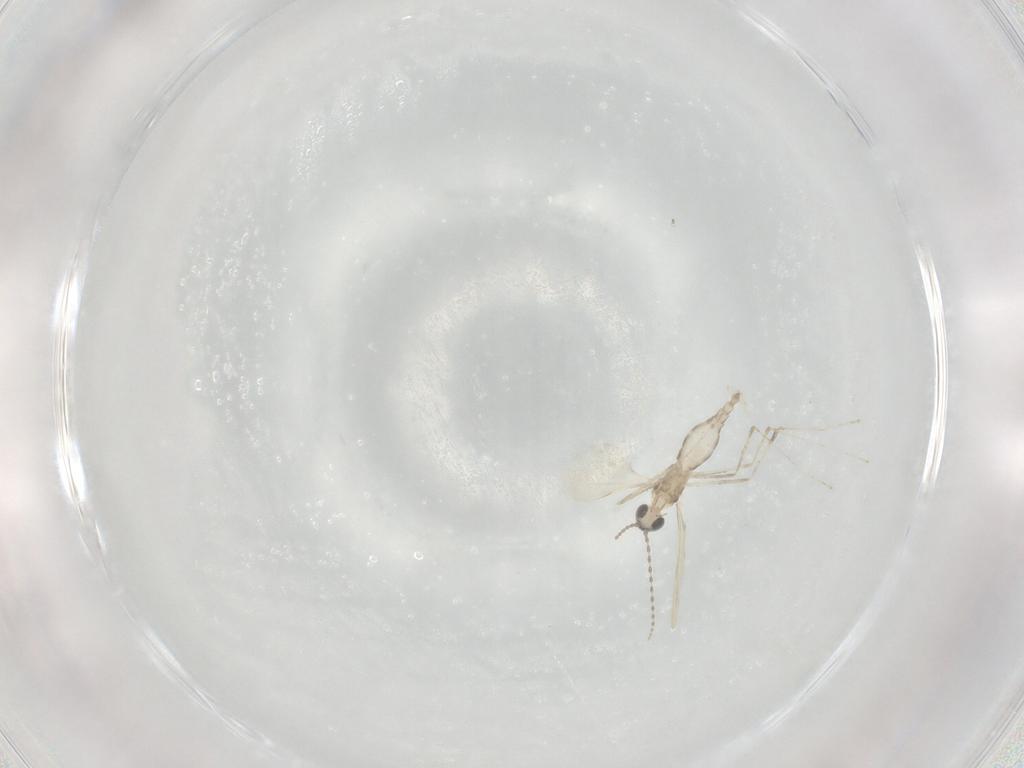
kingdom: Animalia
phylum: Arthropoda
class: Insecta
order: Diptera
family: Cecidomyiidae
